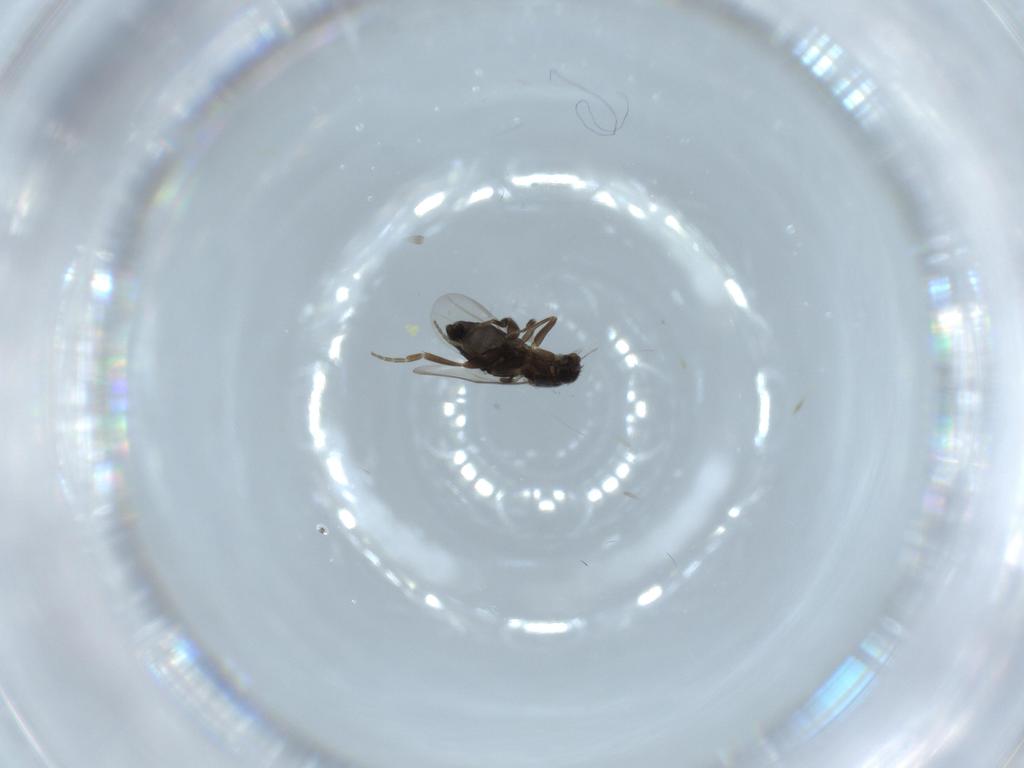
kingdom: Animalia
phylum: Arthropoda
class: Insecta
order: Diptera
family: Phoridae
